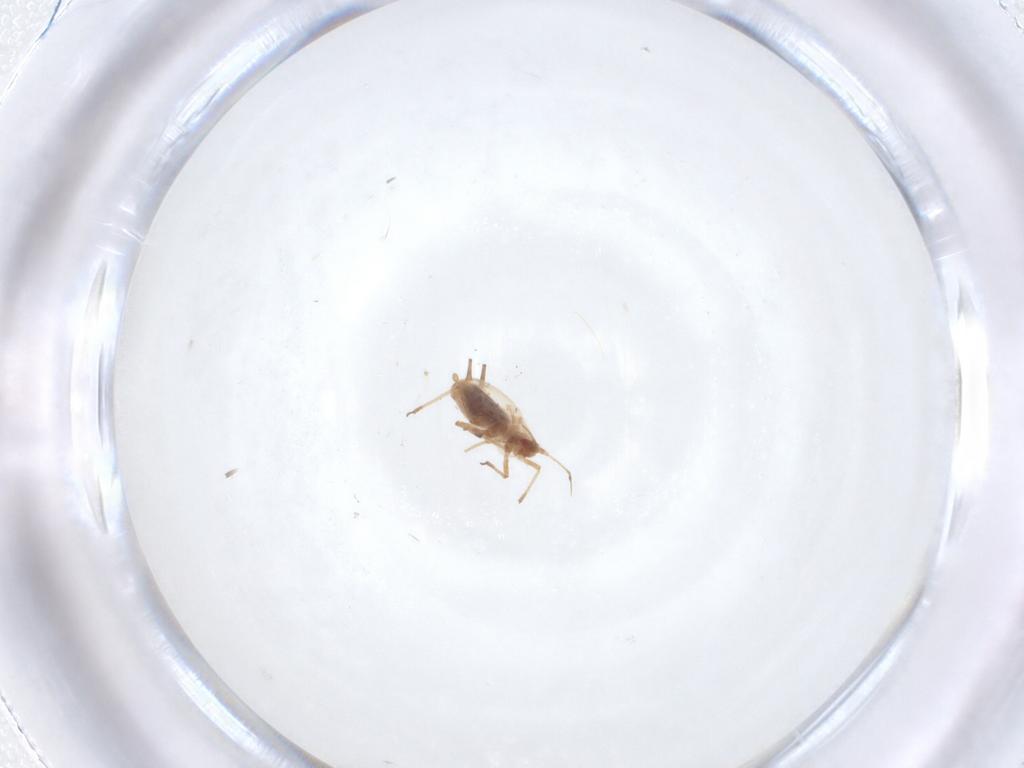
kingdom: Animalia
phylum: Arthropoda
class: Insecta
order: Hemiptera
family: Aphididae
